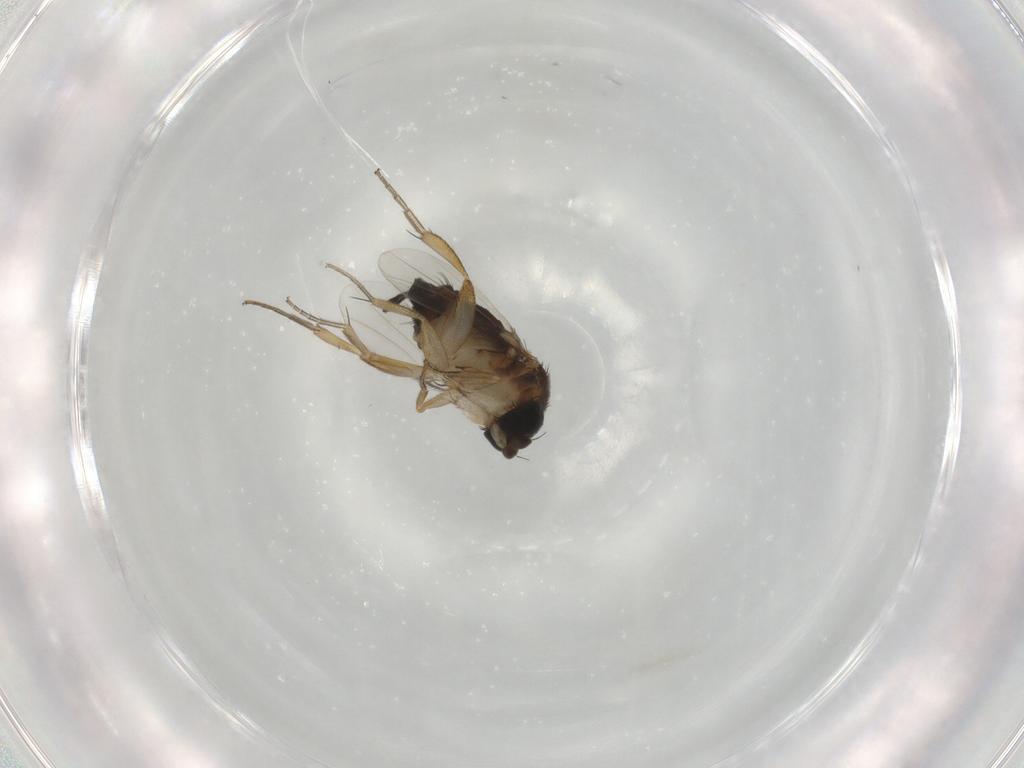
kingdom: Animalia
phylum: Arthropoda
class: Insecta
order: Diptera
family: Phoridae
